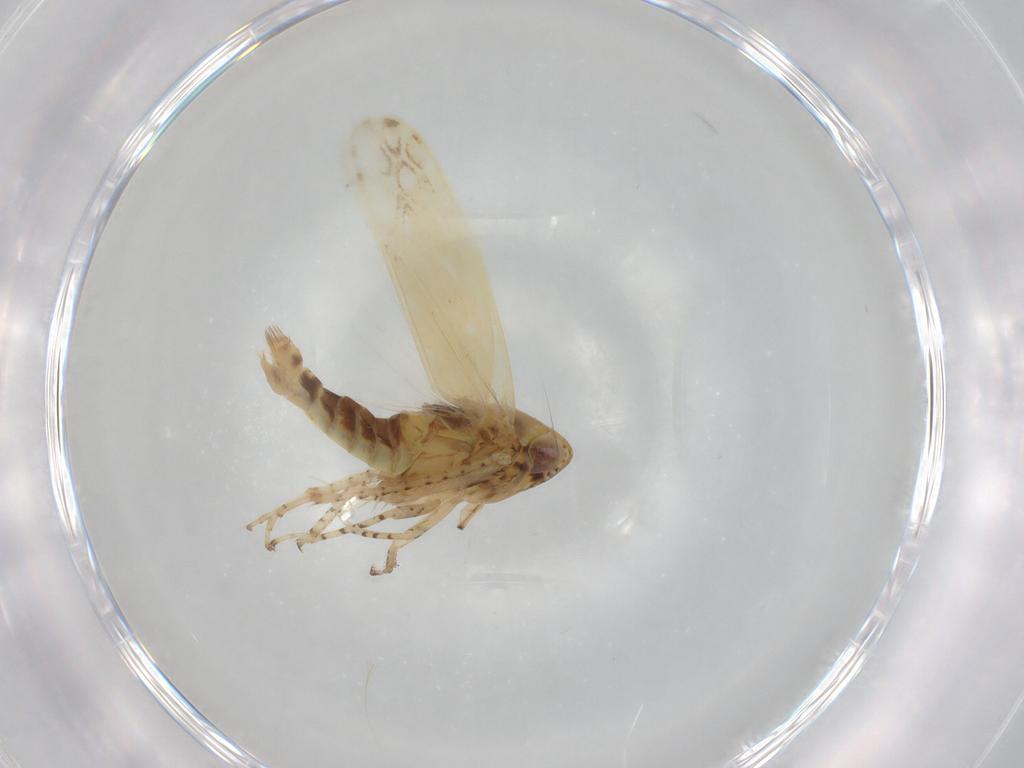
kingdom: Animalia
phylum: Arthropoda
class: Insecta
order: Hemiptera
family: Cicadellidae
